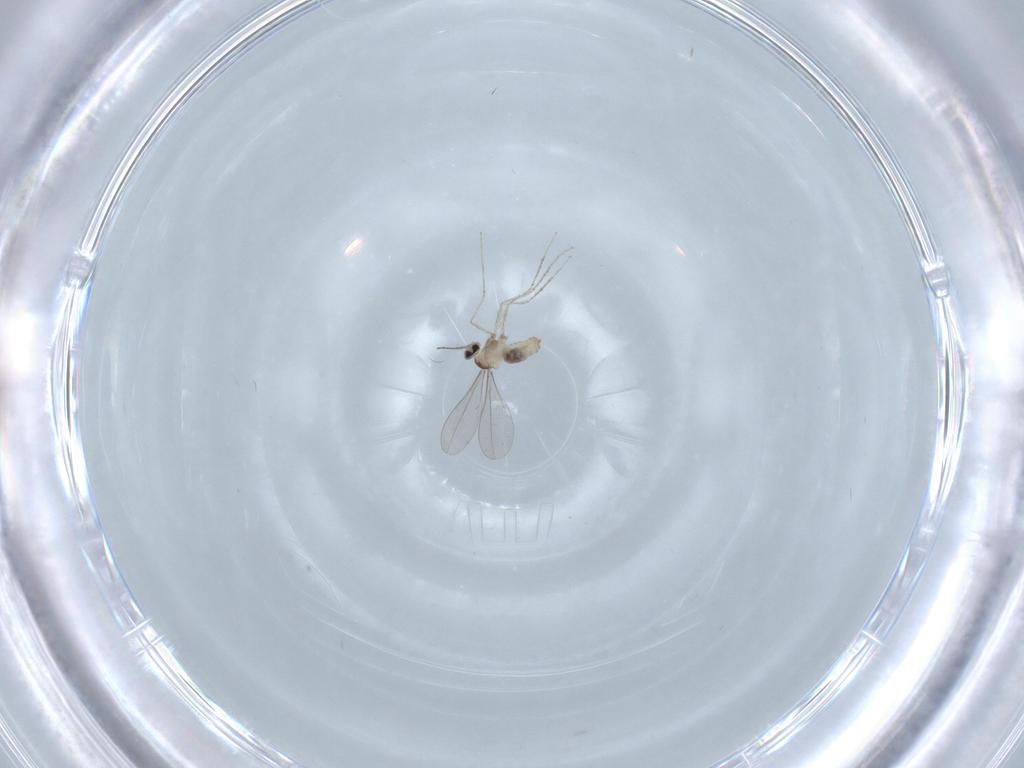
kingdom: Animalia
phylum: Arthropoda
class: Insecta
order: Diptera
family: Cecidomyiidae
